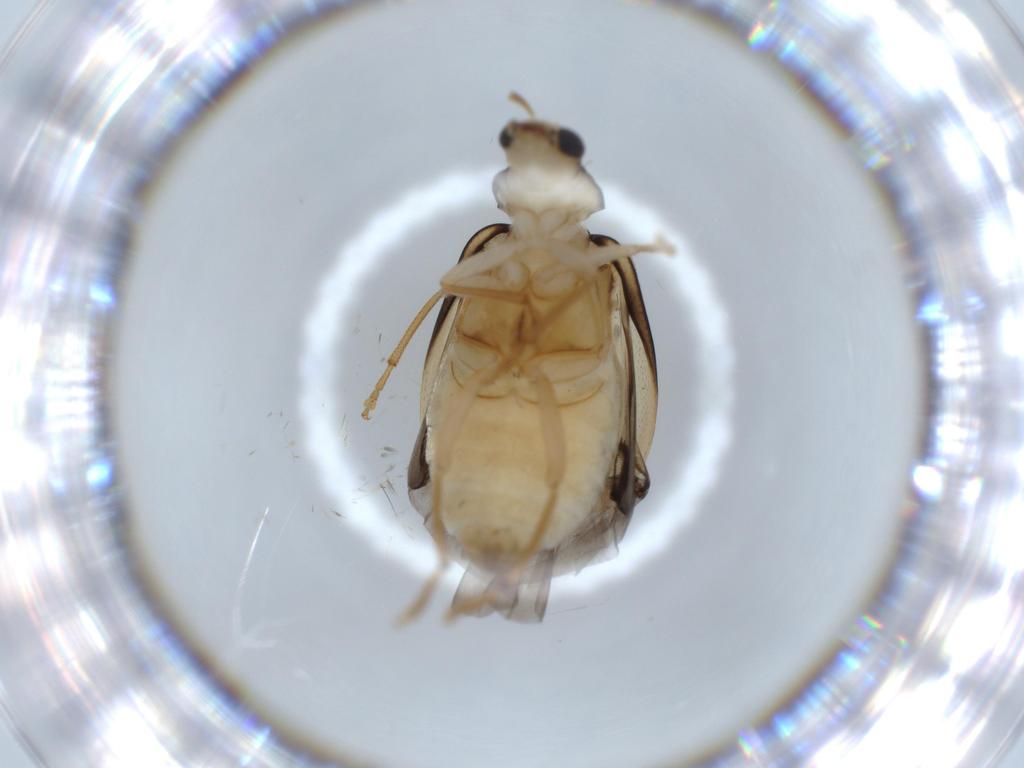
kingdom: Animalia
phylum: Arthropoda
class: Insecta
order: Coleoptera
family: Chrysomelidae
